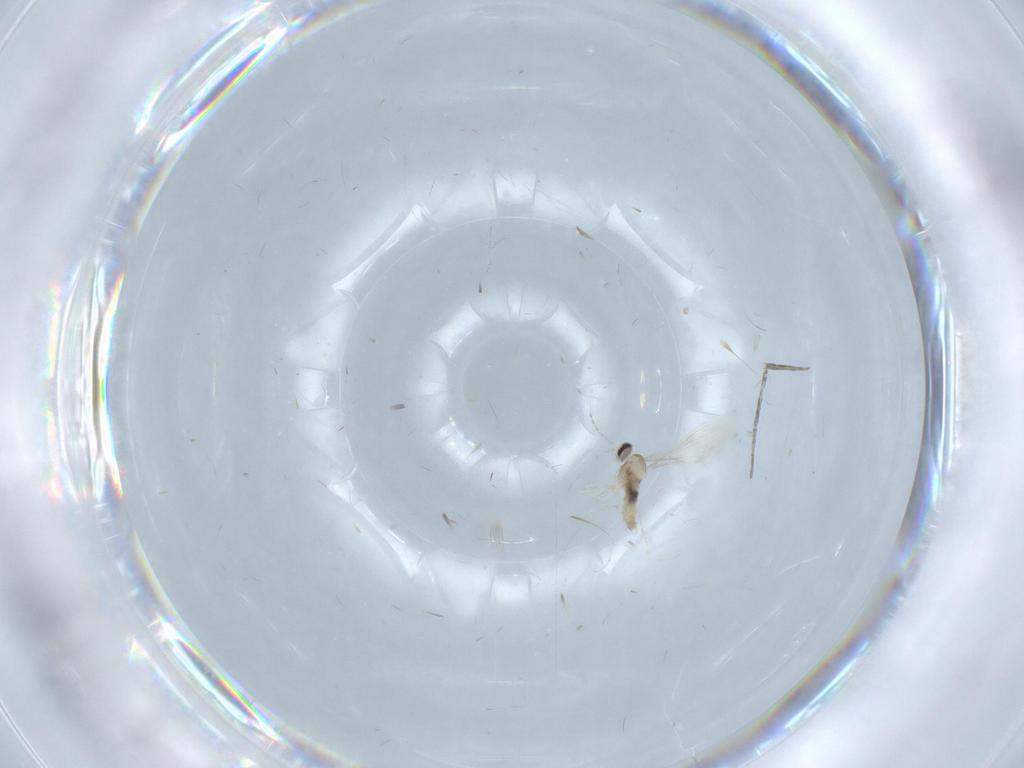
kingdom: Animalia
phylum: Arthropoda
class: Insecta
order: Diptera
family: Cecidomyiidae
